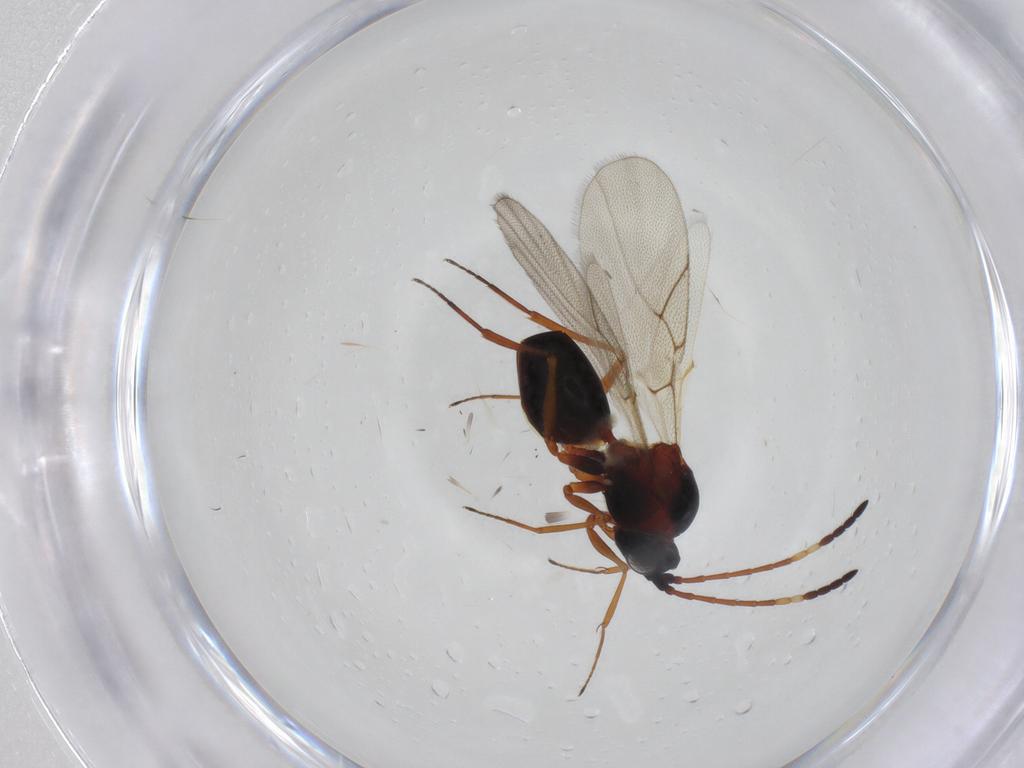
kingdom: Animalia
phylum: Arthropoda
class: Insecta
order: Hymenoptera
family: Figitidae
